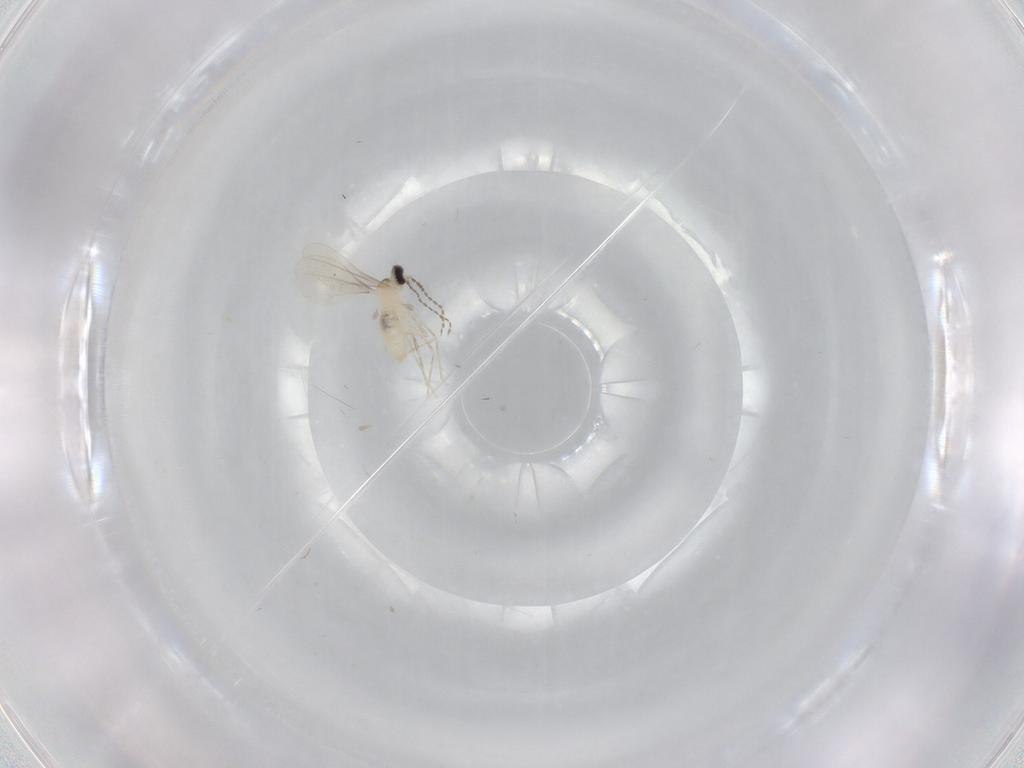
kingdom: Animalia
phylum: Arthropoda
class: Insecta
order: Diptera
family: Cecidomyiidae
